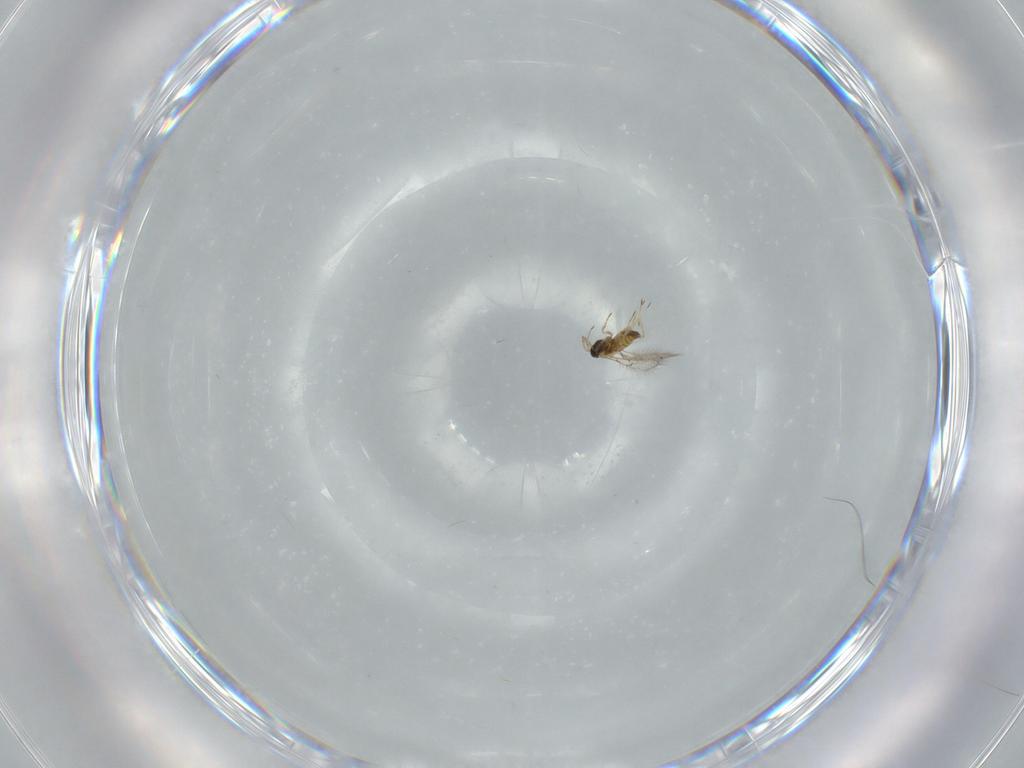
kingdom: Animalia
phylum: Arthropoda
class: Insecta
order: Hymenoptera
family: Trichogrammatidae
